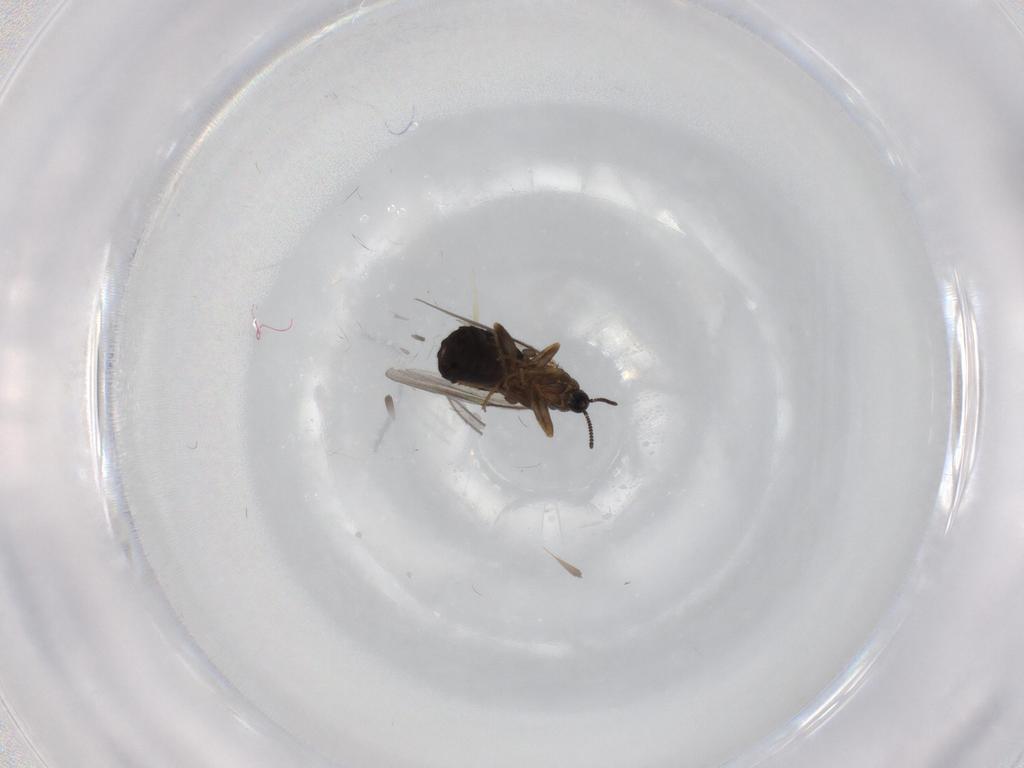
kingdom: Animalia
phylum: Arthropoda
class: Insecta
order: Diptera
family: Scatopsidae
